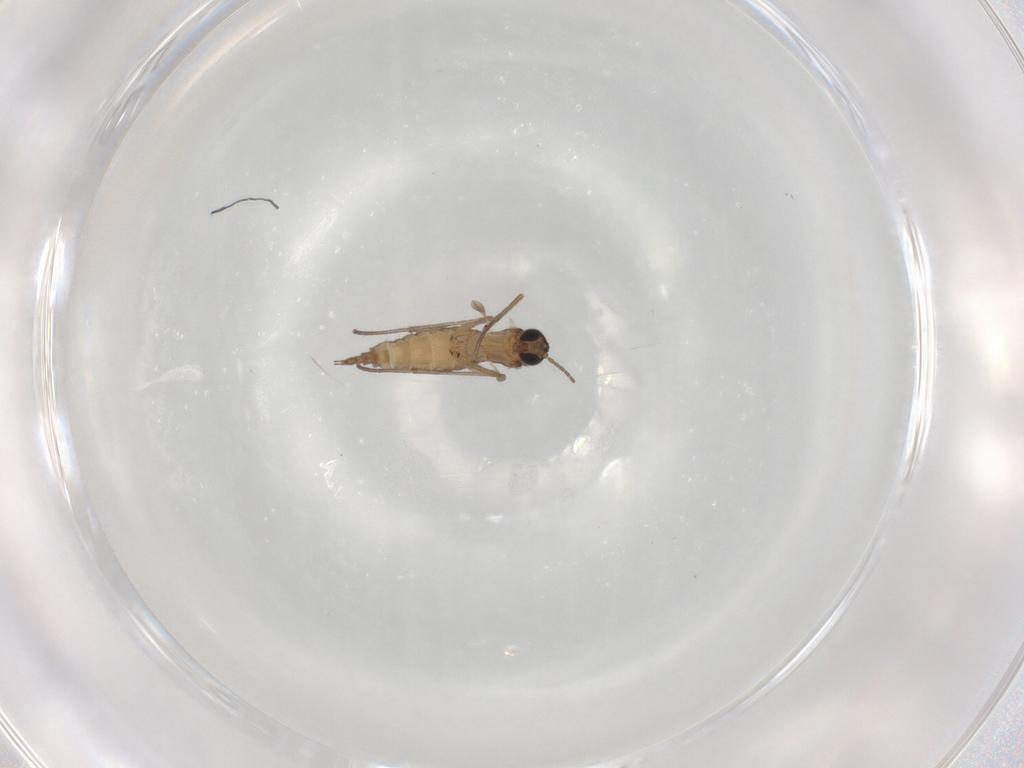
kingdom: Animalia
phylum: Arthropoda
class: Insecta
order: Diptera
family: Sciaridae
